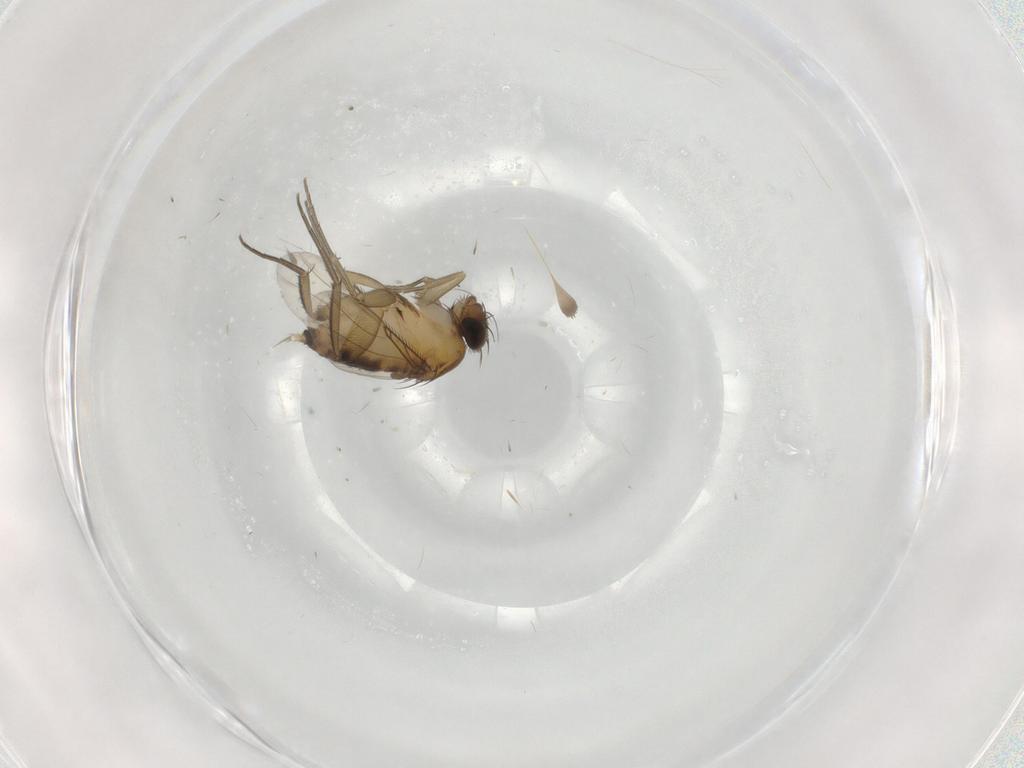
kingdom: Animalia
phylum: Arthropoda
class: Insecta
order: Diptera
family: Phoridae
